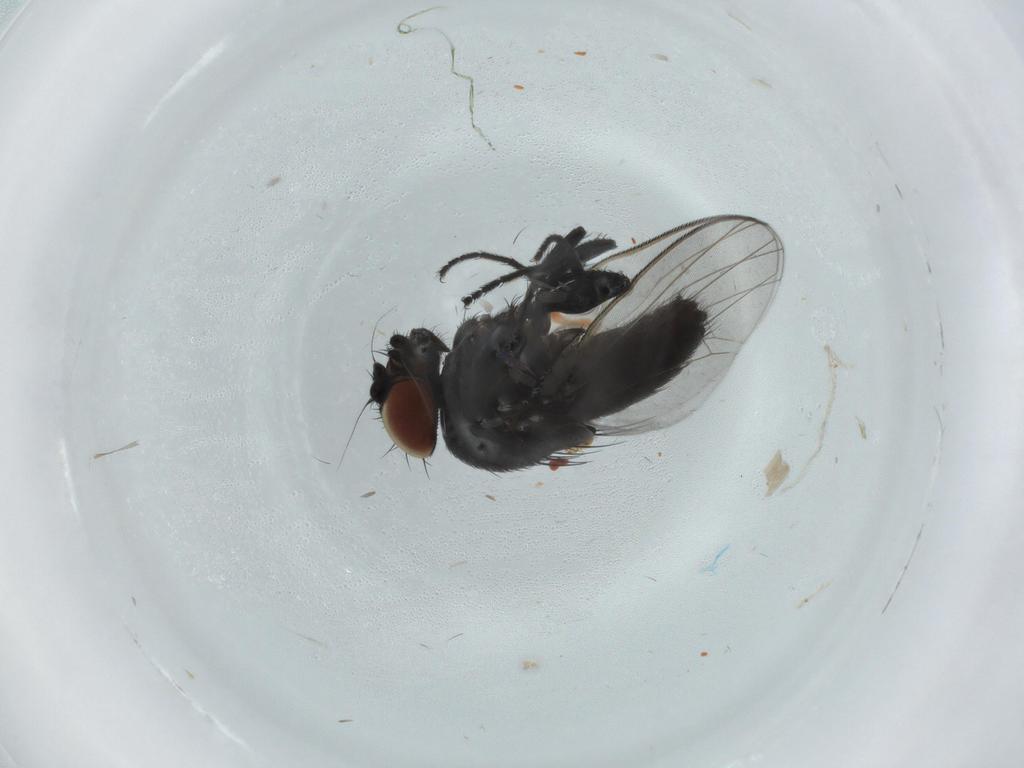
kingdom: Animalia
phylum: Arthropoda
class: Insecta
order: Diptera
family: Milichiidae
